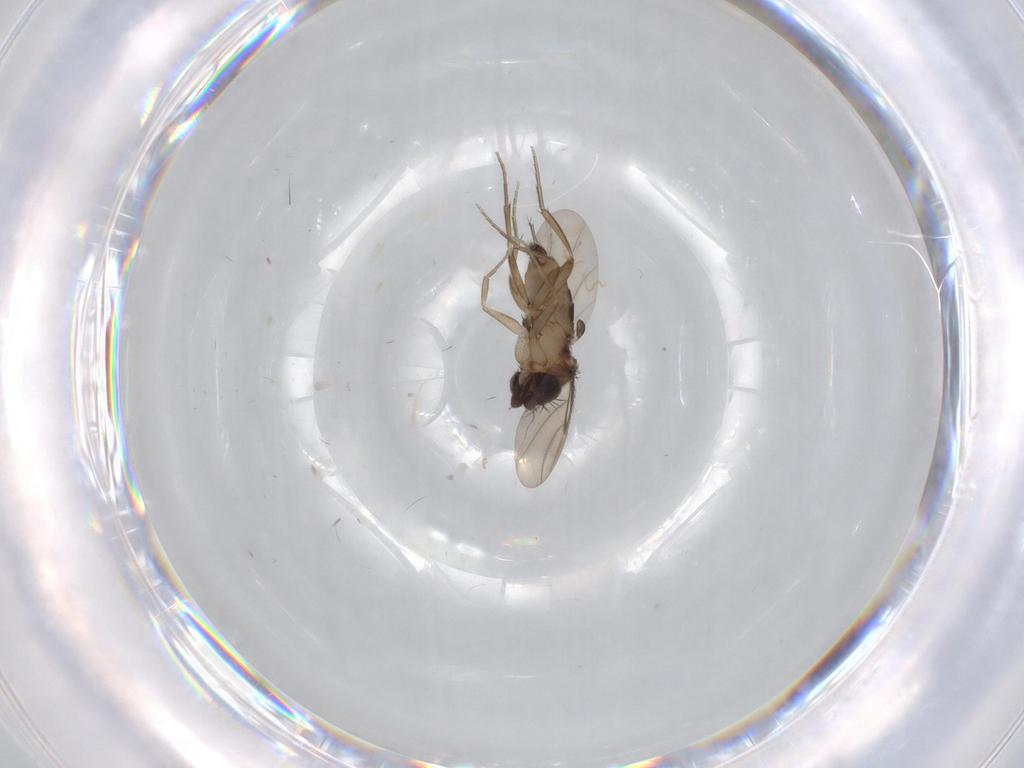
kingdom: Animalia
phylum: Arthropoda
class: Insecta
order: Diptera
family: Phoridae
